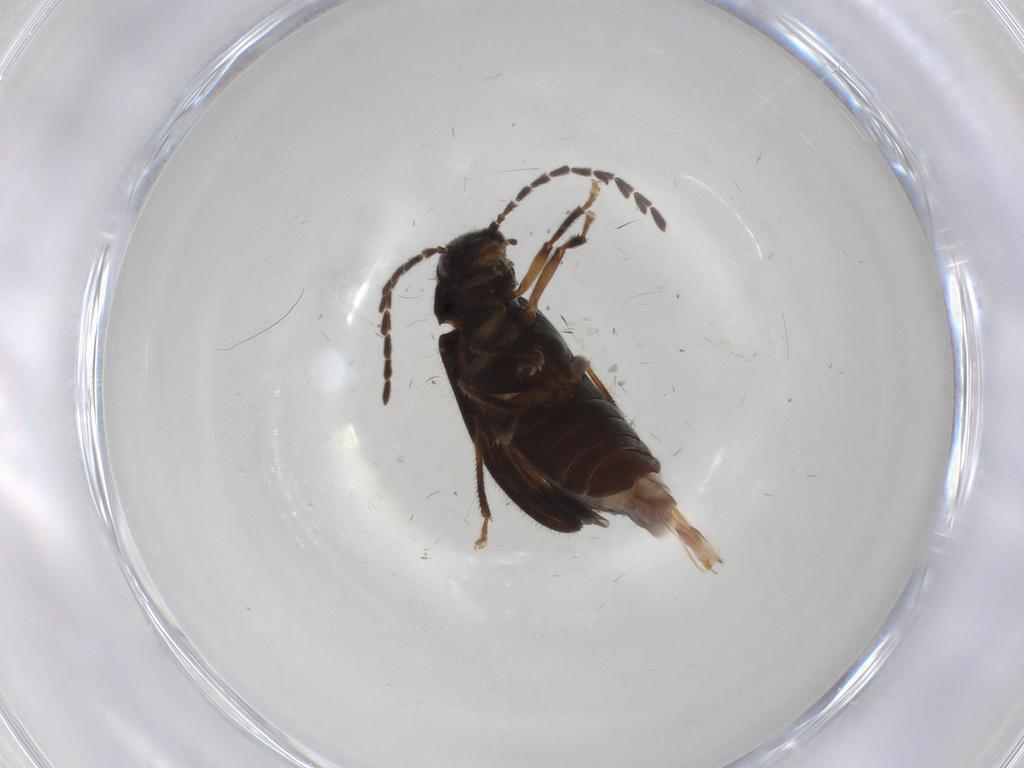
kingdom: Animalia
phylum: Arthropoda
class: Insecta
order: Coleoptera
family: Ptilodactylidae
